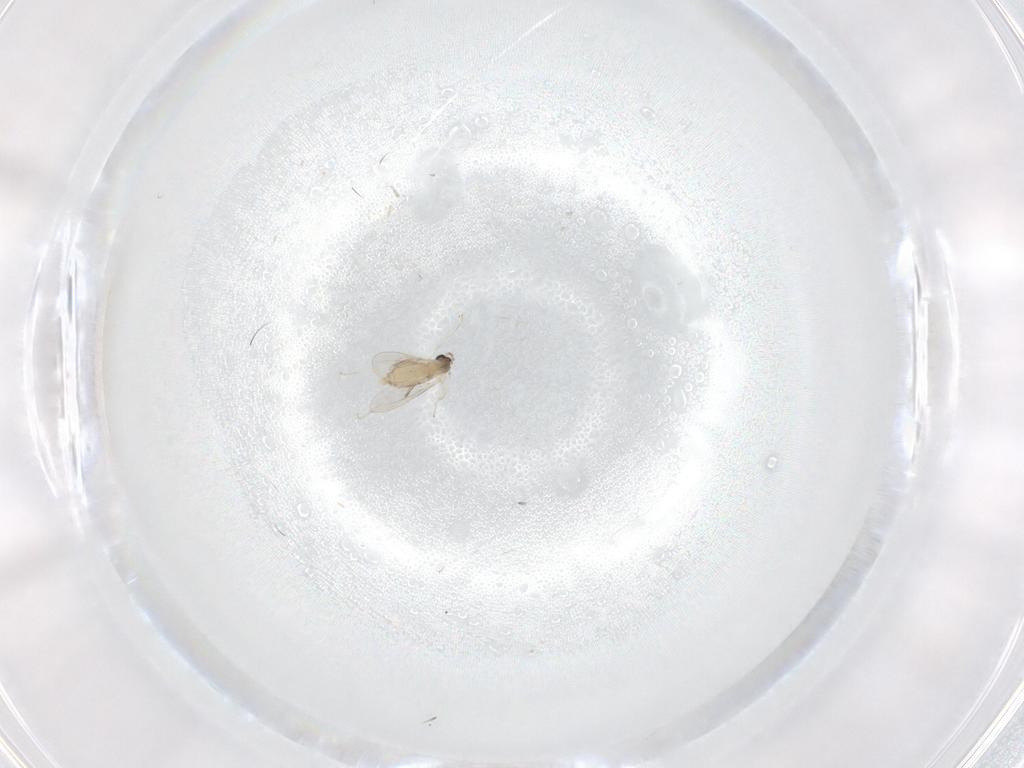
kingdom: Animalia
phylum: Arthropoda
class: Insecta
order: Diptera
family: Cecidomyiidae
